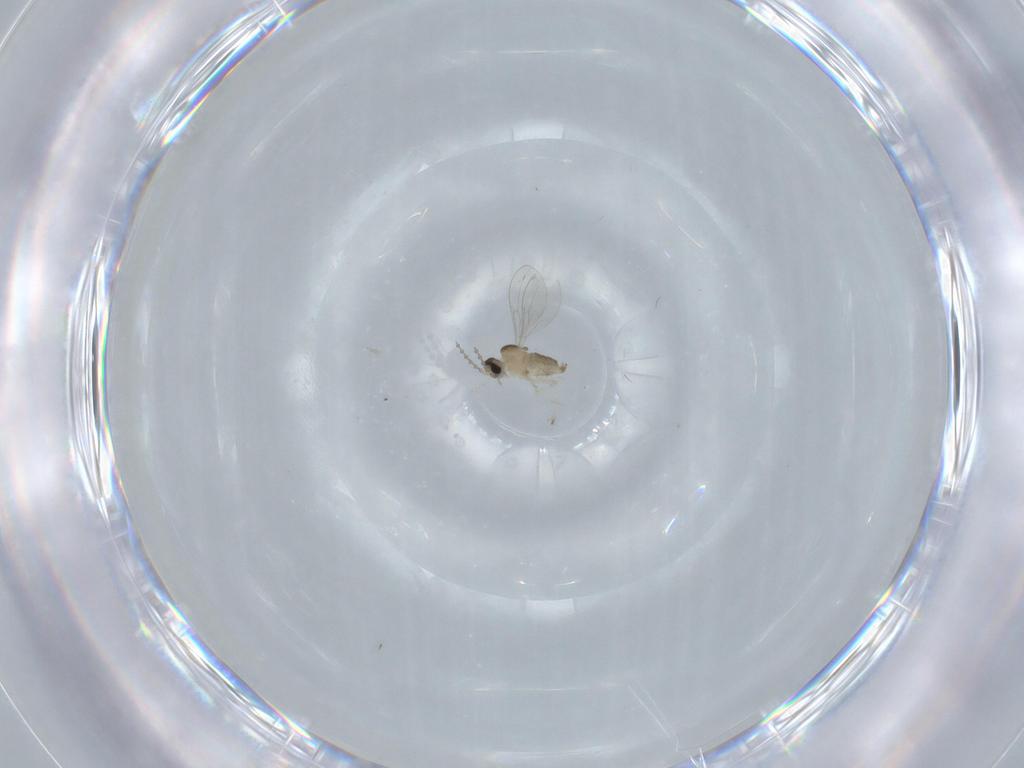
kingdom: Animalia
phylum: Arthropoda
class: Insecta
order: Diptera
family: Cecidomyiidae
